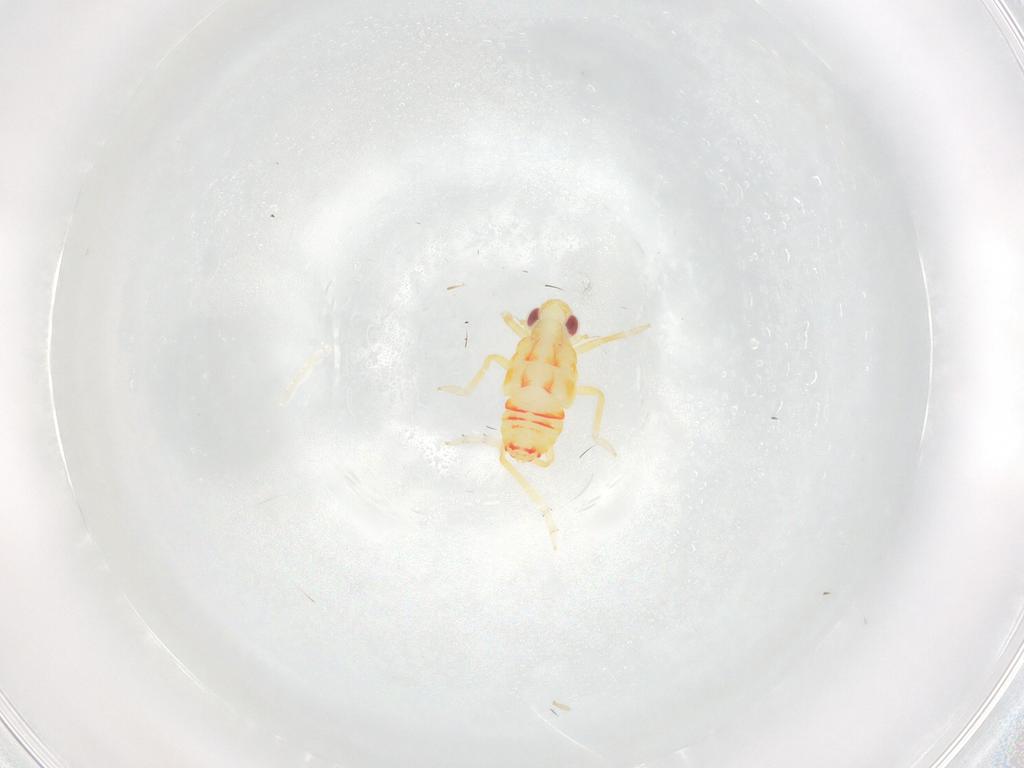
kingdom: Animalia
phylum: Arthropoda
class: Insecta
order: Hemiptera
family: Tropiduchidae
